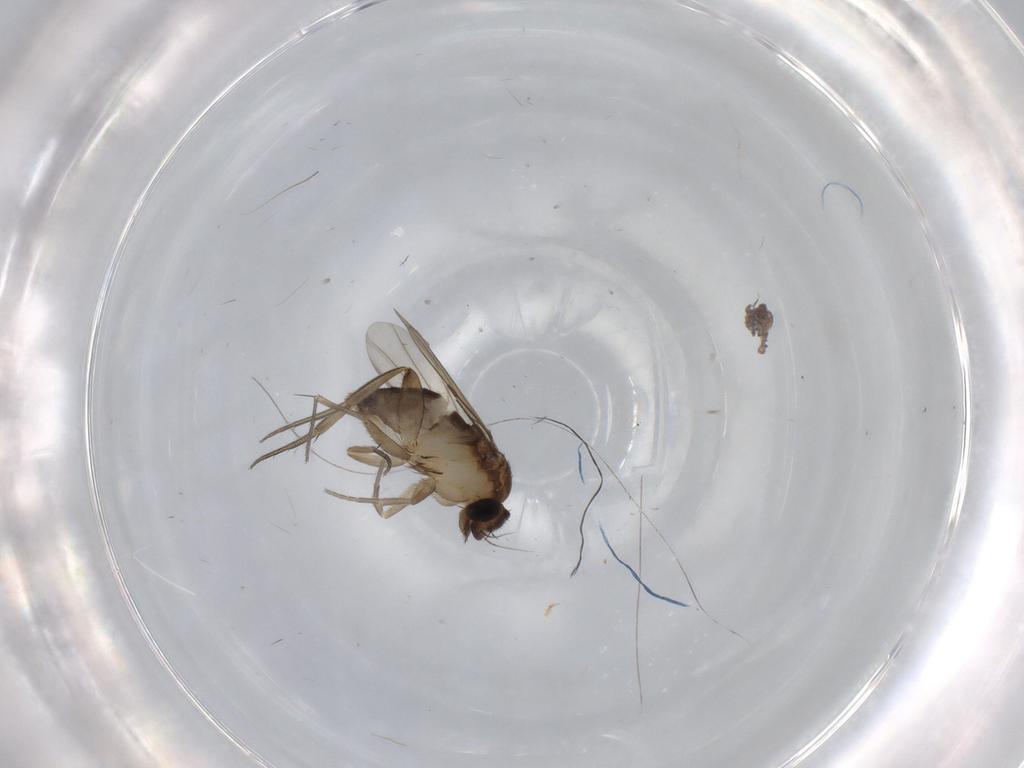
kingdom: Animalia
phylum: Arthropoda
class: Insecta
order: Diptera
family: Phoridae
